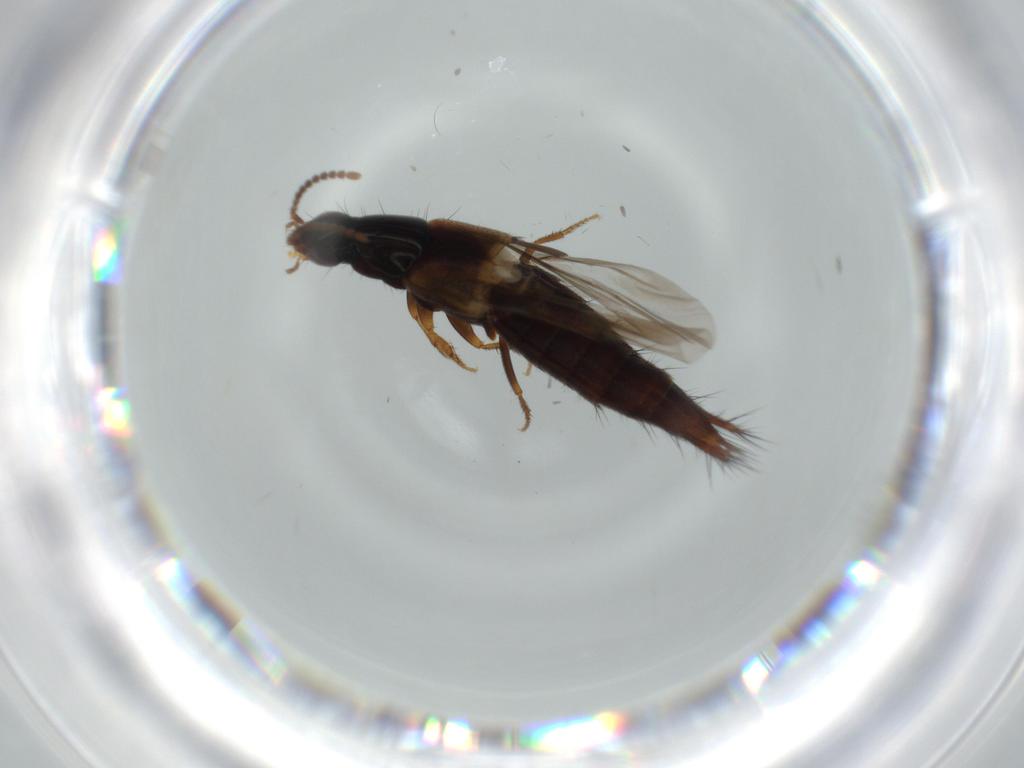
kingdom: Animalia
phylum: Arthropoda
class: Insecta
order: Coleoptera
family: Staphylinidae
